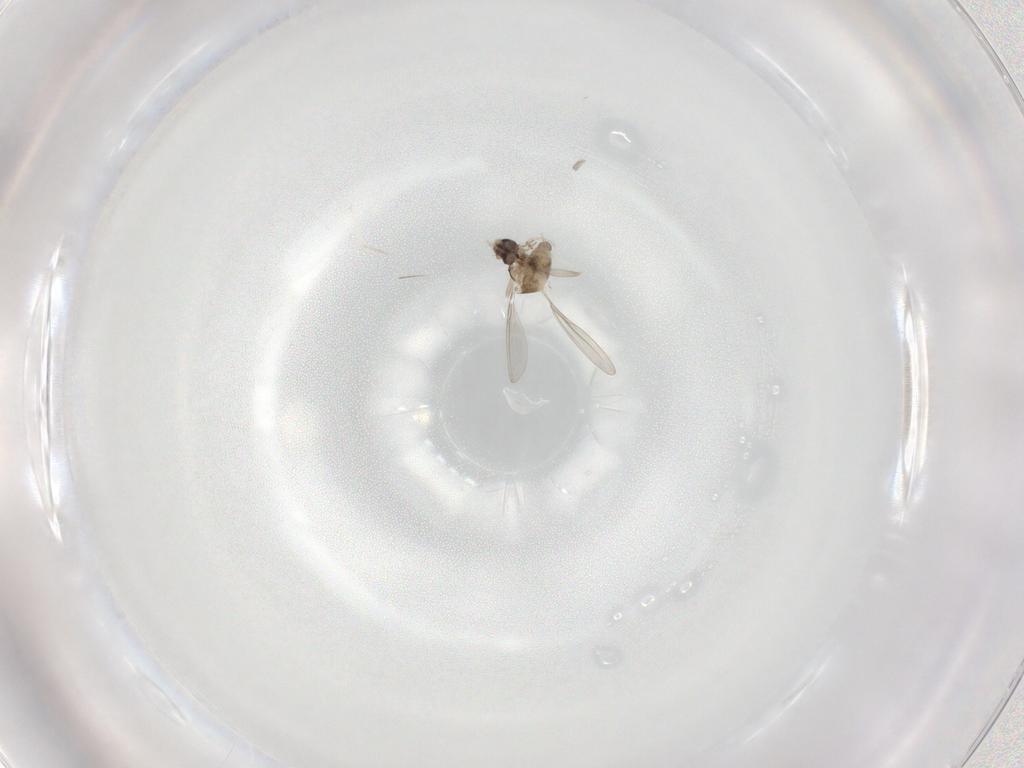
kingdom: Animalia
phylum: Arthropoda
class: Insecta
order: Diptera
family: Cecidomyiidae
